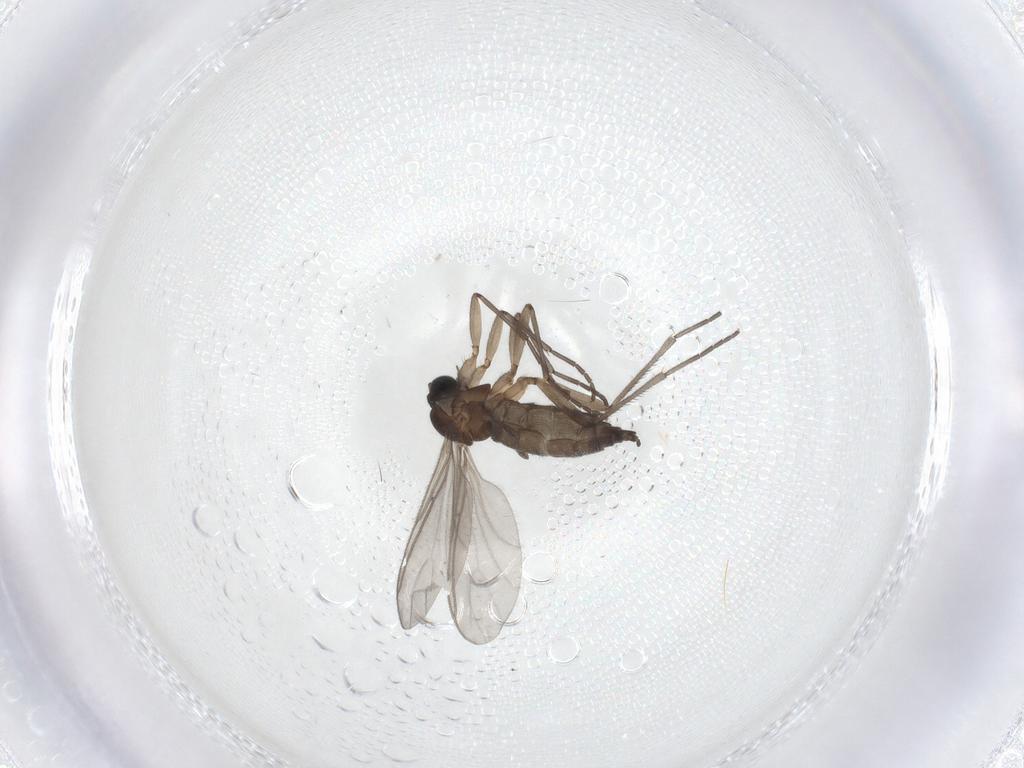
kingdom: Animalia
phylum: Arthropoda
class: Insecta
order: Diptera
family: Sciaridae
